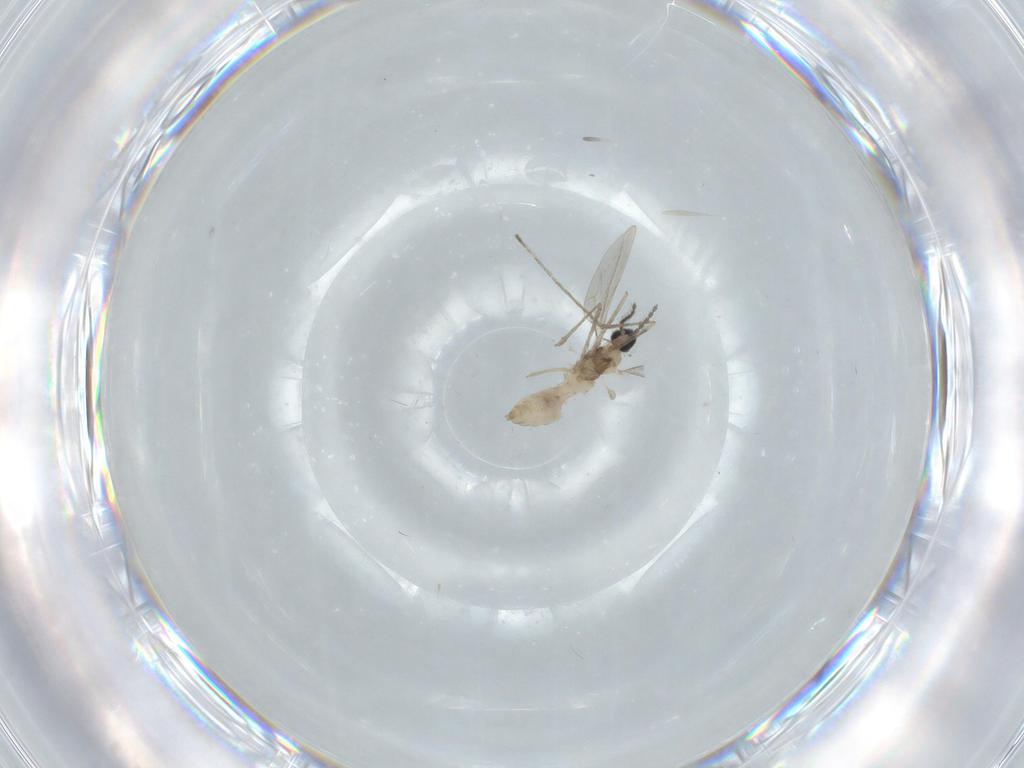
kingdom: Animalia
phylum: Arthropoda
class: Insecta
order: Diptera
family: Cecidomyiidae
